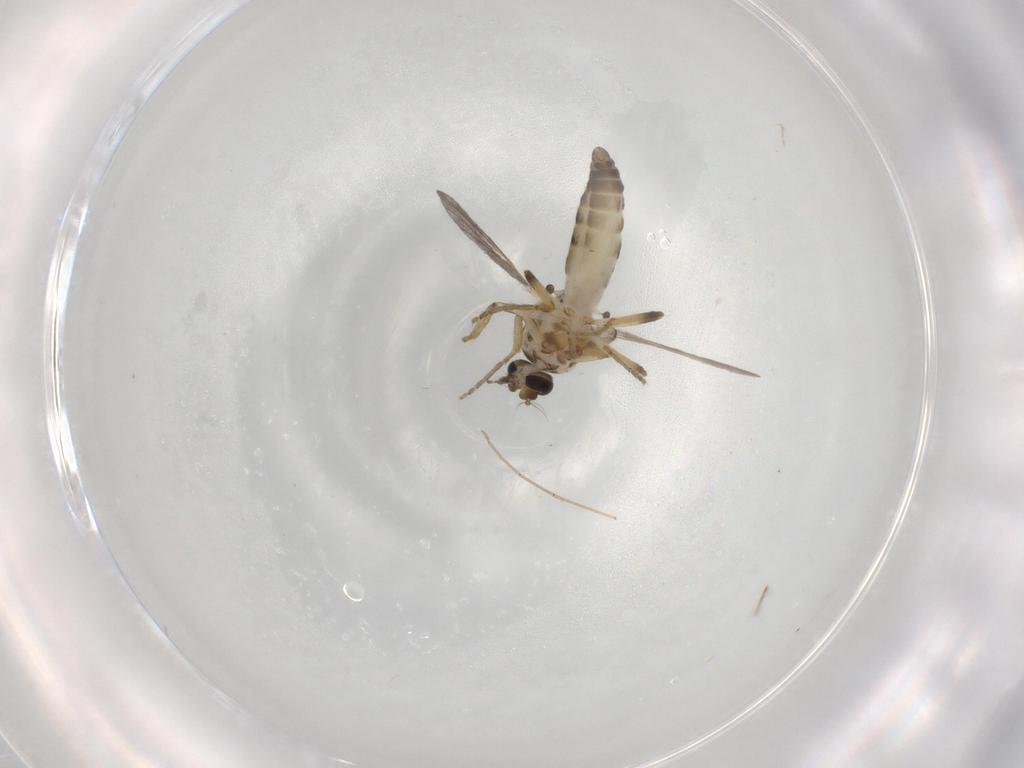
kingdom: Animalia
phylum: Arthropoda
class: Insecta
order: Diptera
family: Ceratopogonidae
